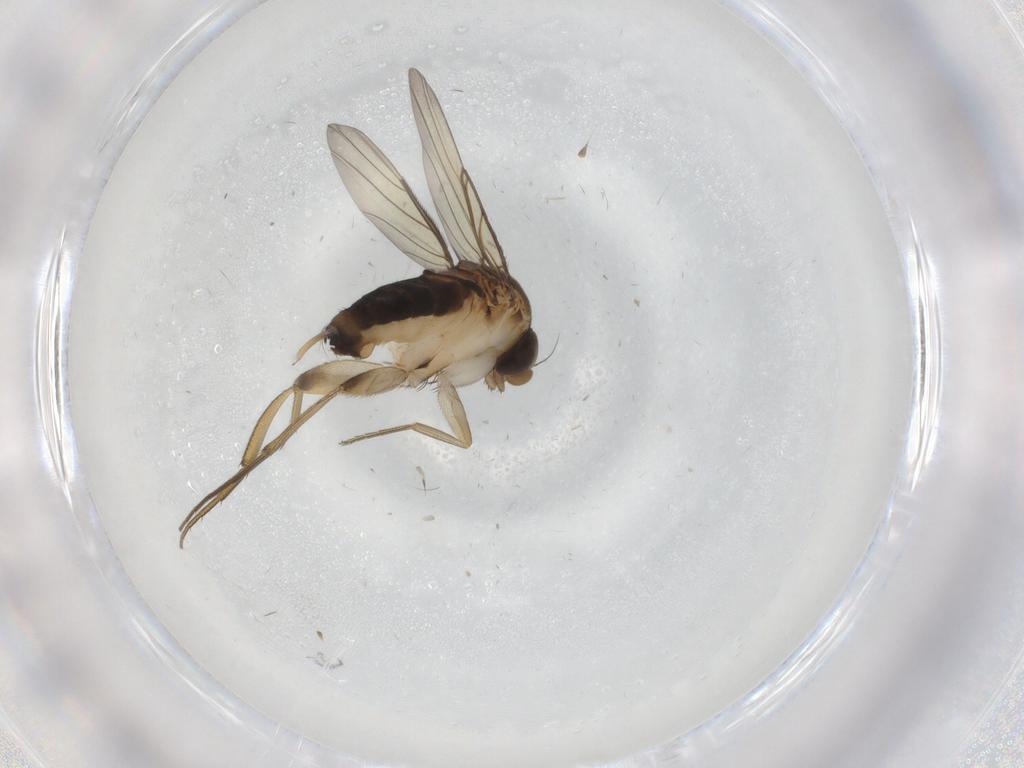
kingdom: Animalia
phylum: Arthropoda
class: Insecta
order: Diptera
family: Phoridae
